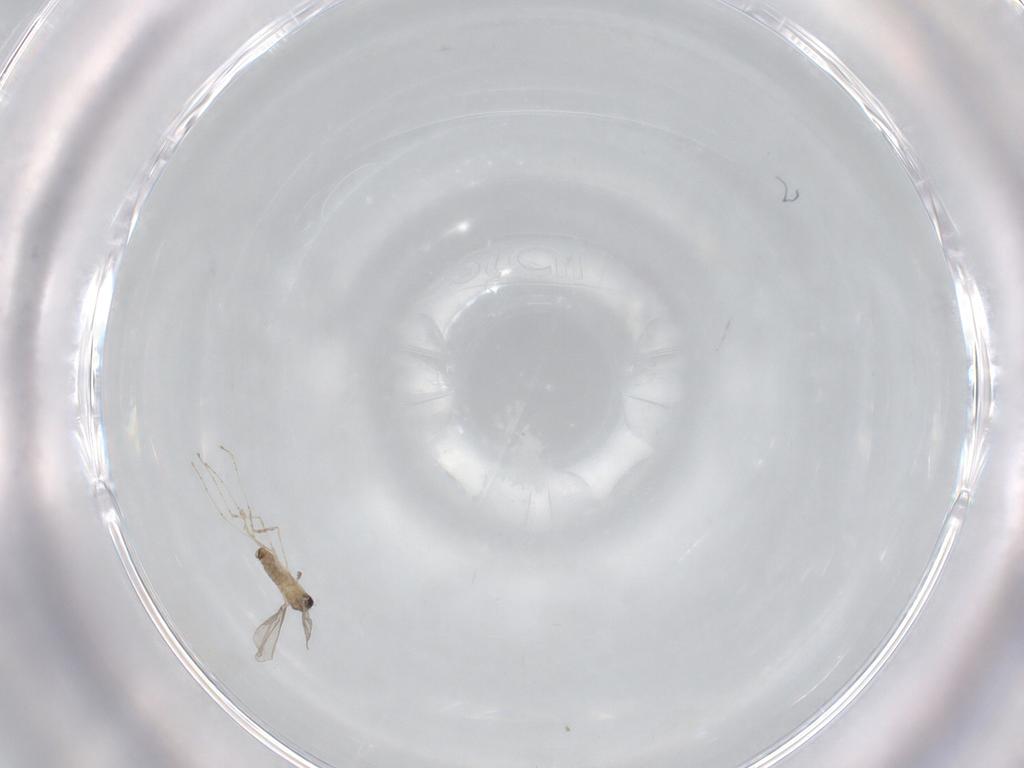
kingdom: Animalia
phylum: Arthropoda
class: Insecta
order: Diptera
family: Cecidomyiidae
